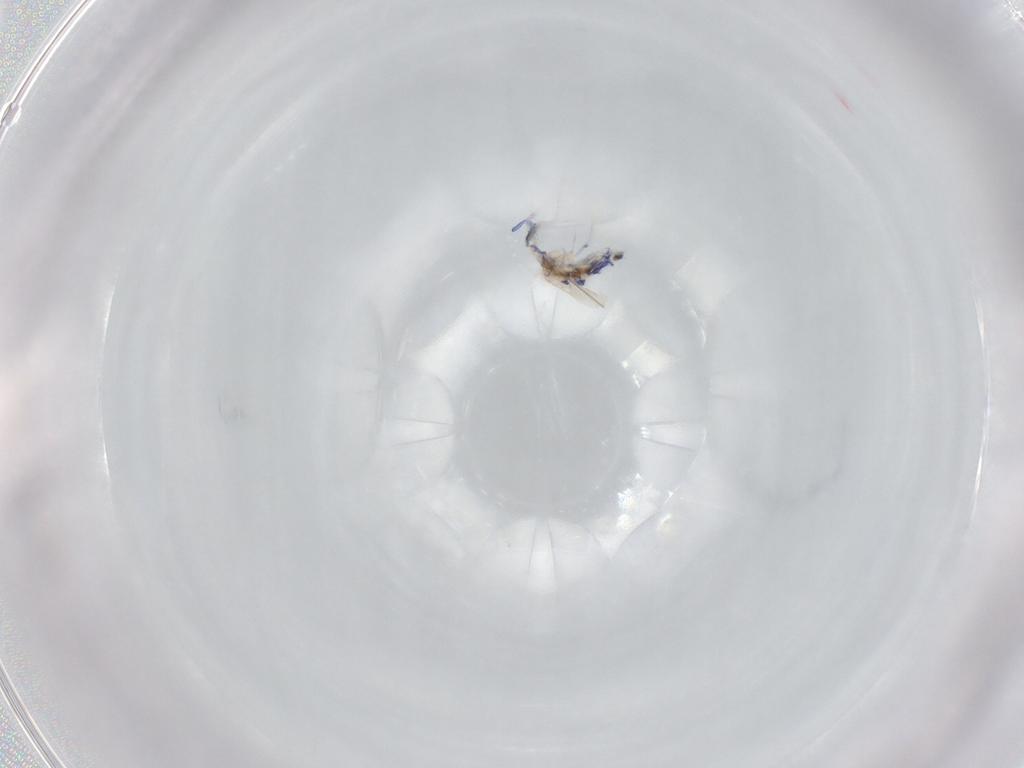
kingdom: Animalia
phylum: Arthropoda
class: Collembola
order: Entomobryomorpha
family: Entomobryidae
